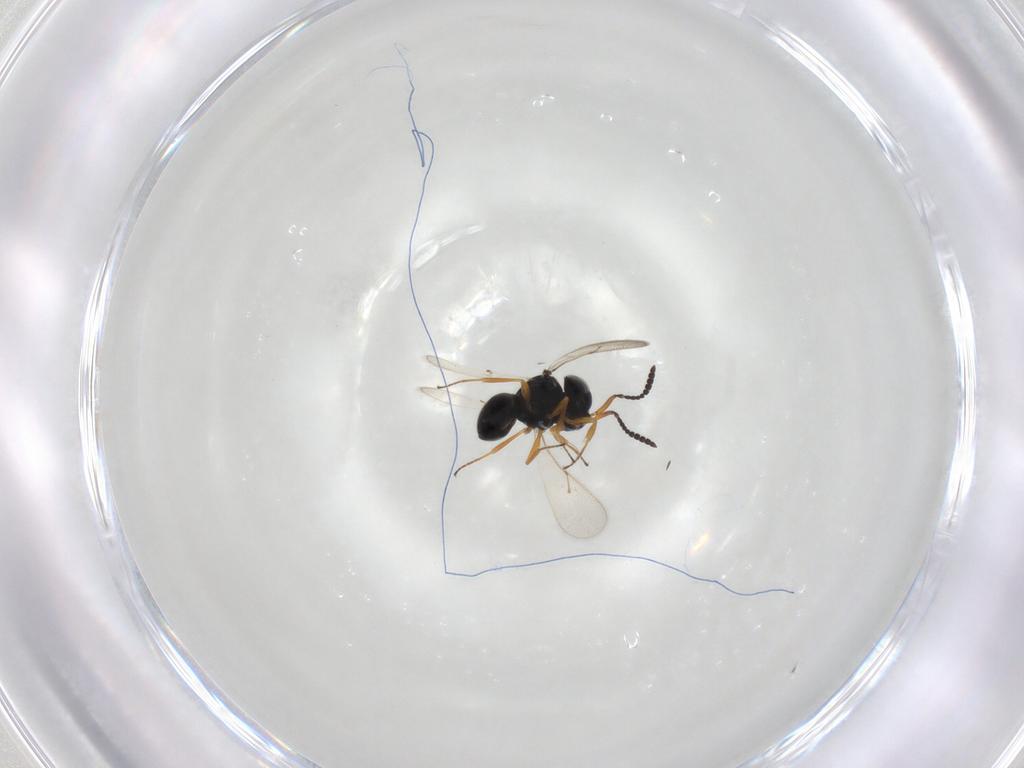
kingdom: Animalia
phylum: Arthropoda
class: Insecta
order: Hymenoptera
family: Scelionidae
